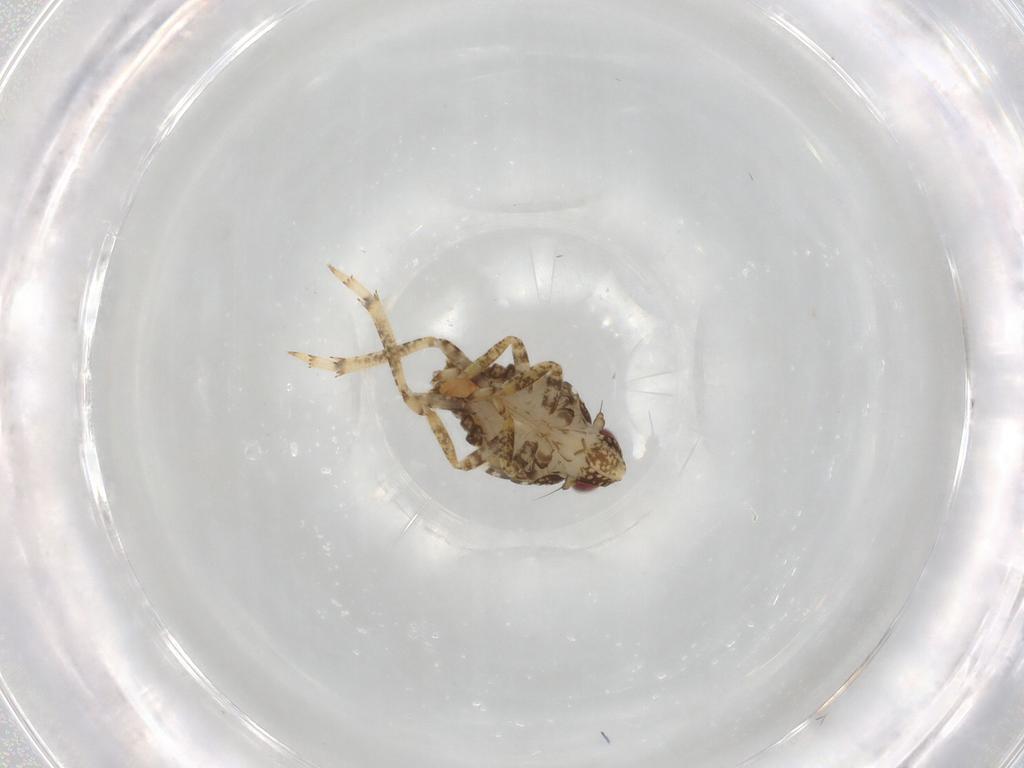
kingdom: Animalia
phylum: Arthropoda
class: Insecta
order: Hemiptera
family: Issidae
